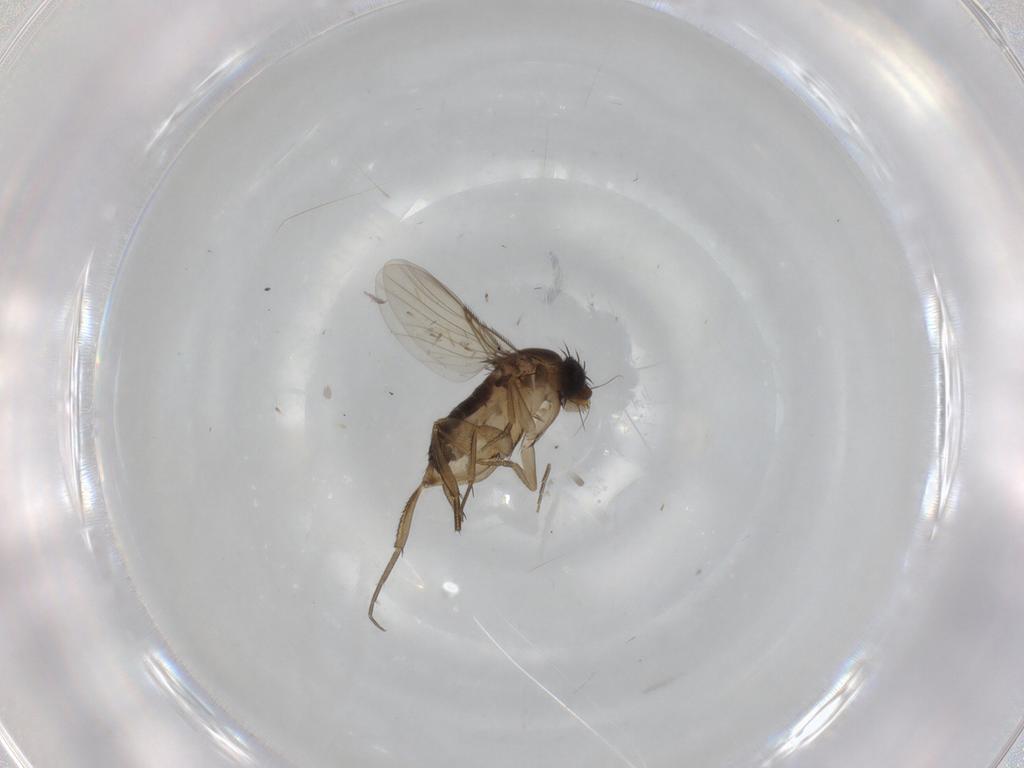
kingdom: Animalia
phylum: Arthropoda
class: Insecta
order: Diptera
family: Phoridae
